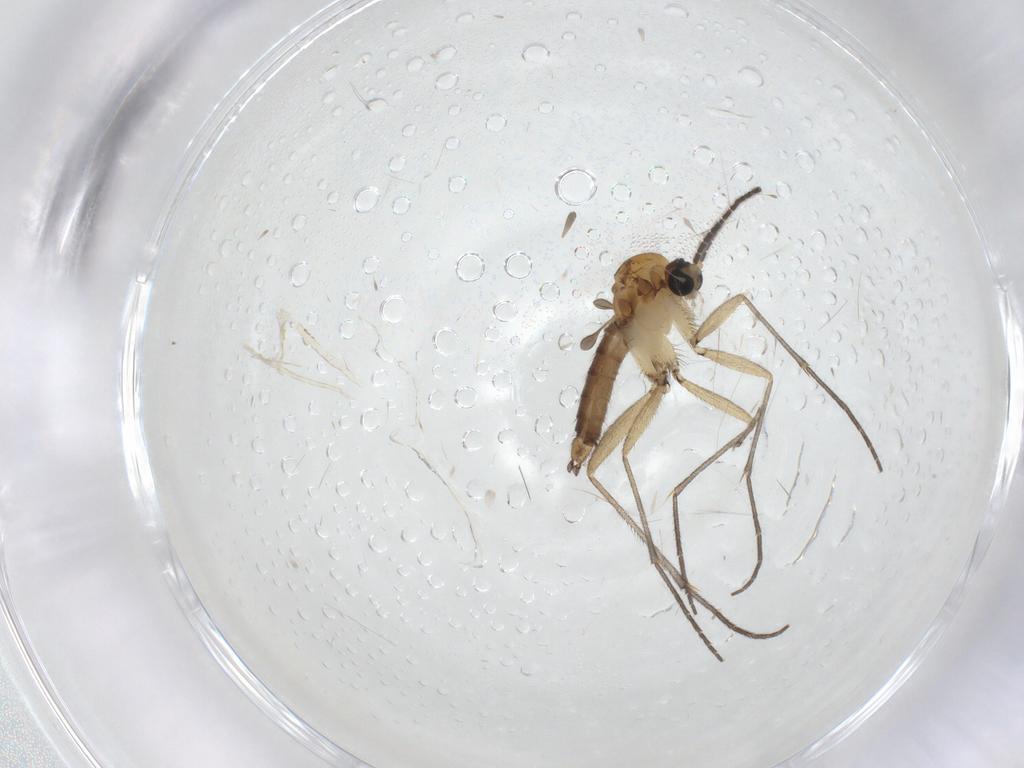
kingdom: Animalia
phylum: Arthropoda
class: Insecta
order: Diptera
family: Sciaridae
